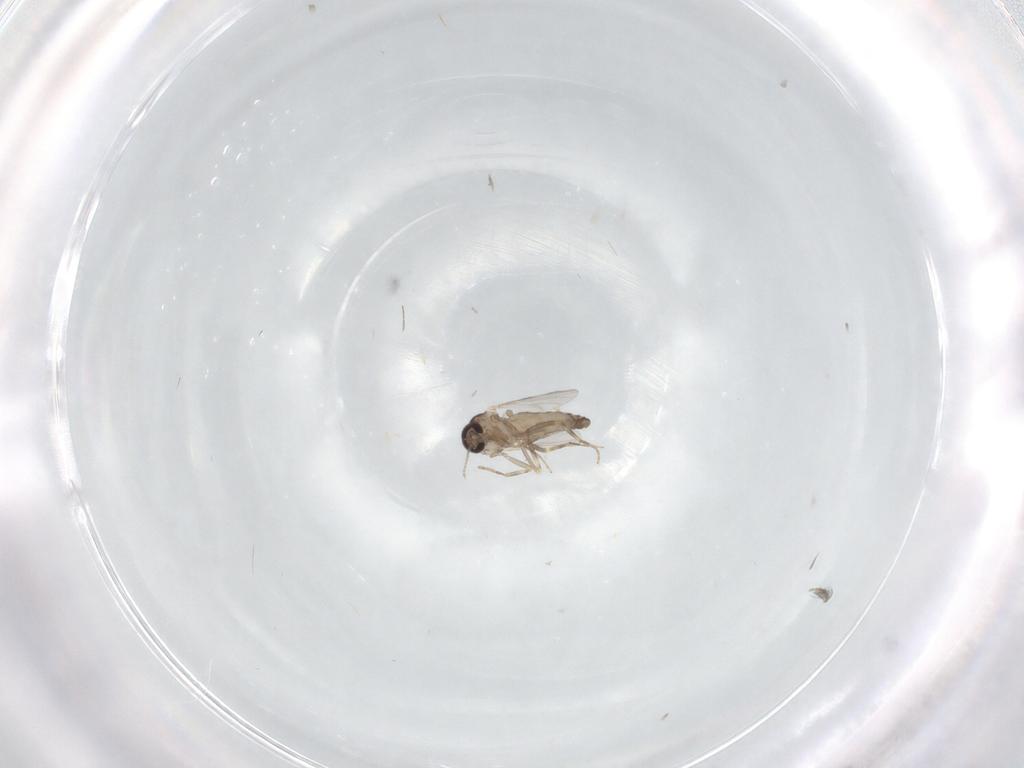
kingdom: Animalia
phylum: Arthropoda
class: Insecta
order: Diptera
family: Ceratopogonidae
